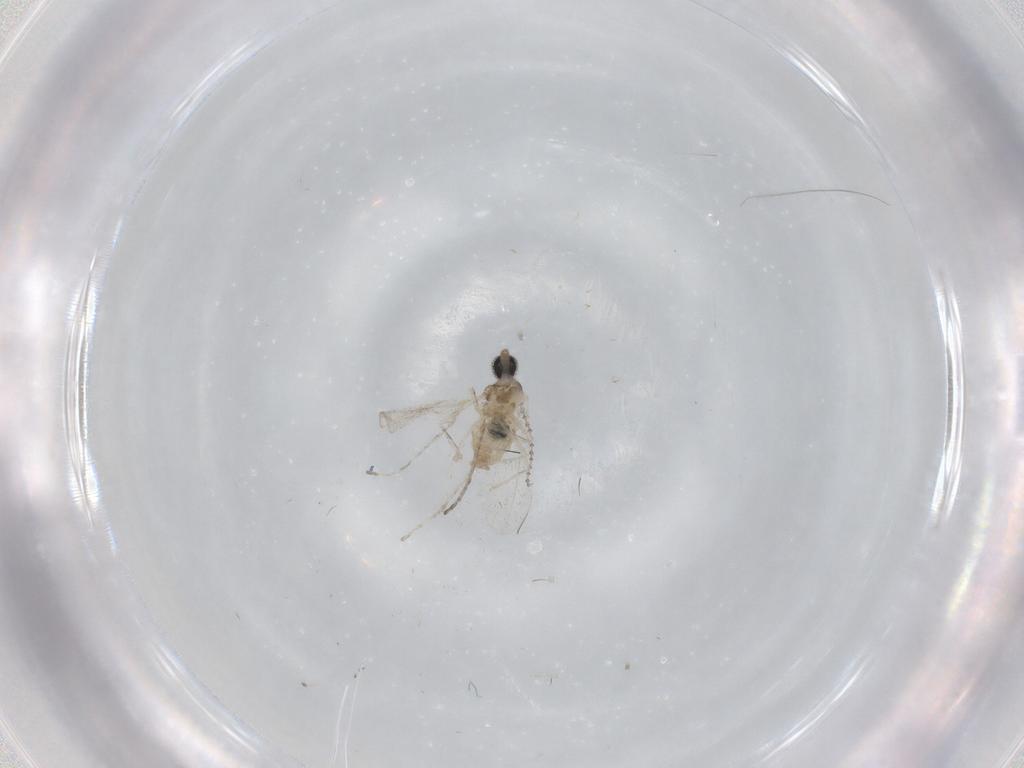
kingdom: Animalia
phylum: Arthropoda
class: Insecta
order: Diptera
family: Cecidomyiidae
